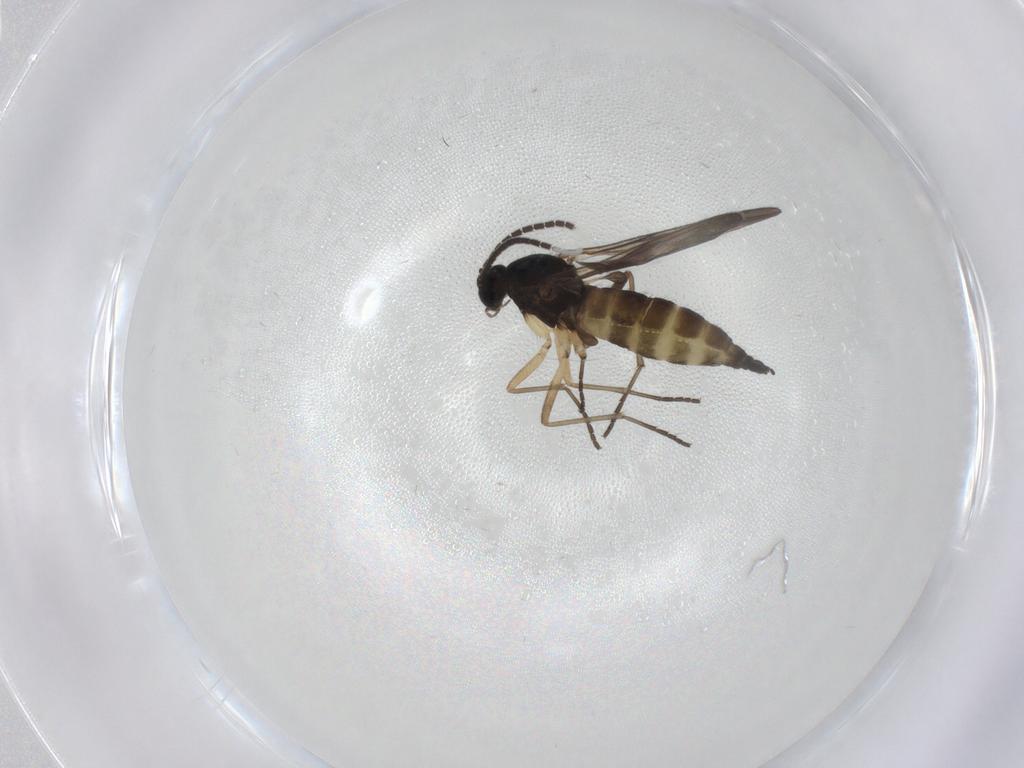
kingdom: Animalia
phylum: Arthropoda
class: Insecta
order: Diptera
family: Sciaridae
